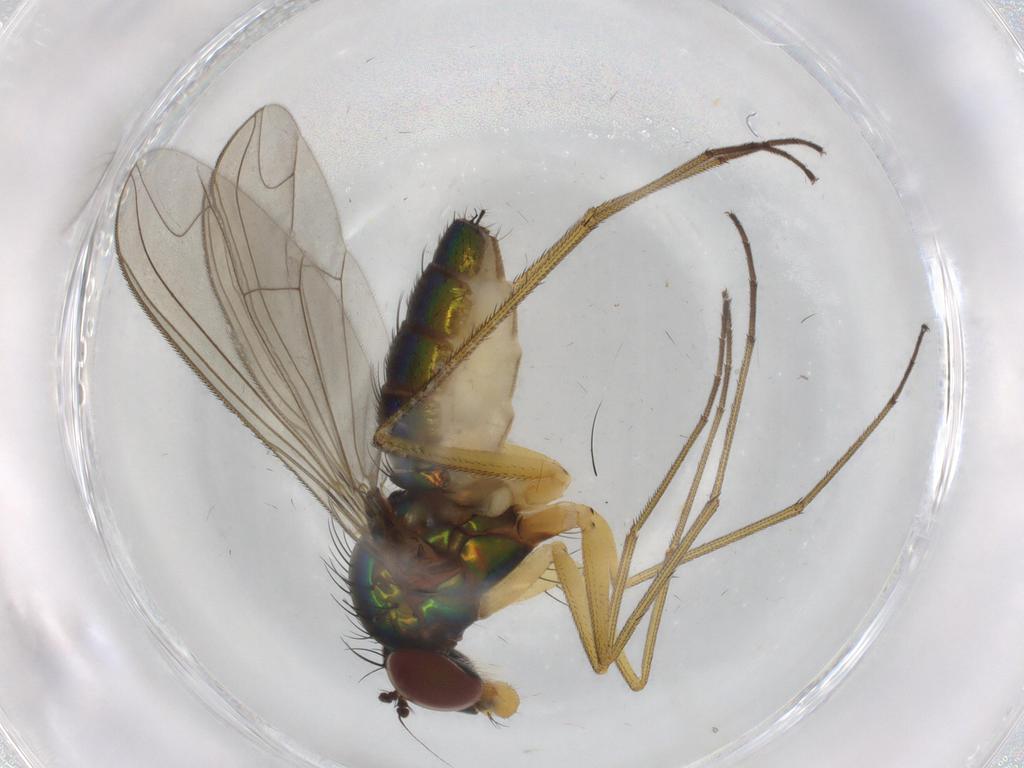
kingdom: Animalia
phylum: Arthropoda
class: Insecta
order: Diptera
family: Dolichopodidae
